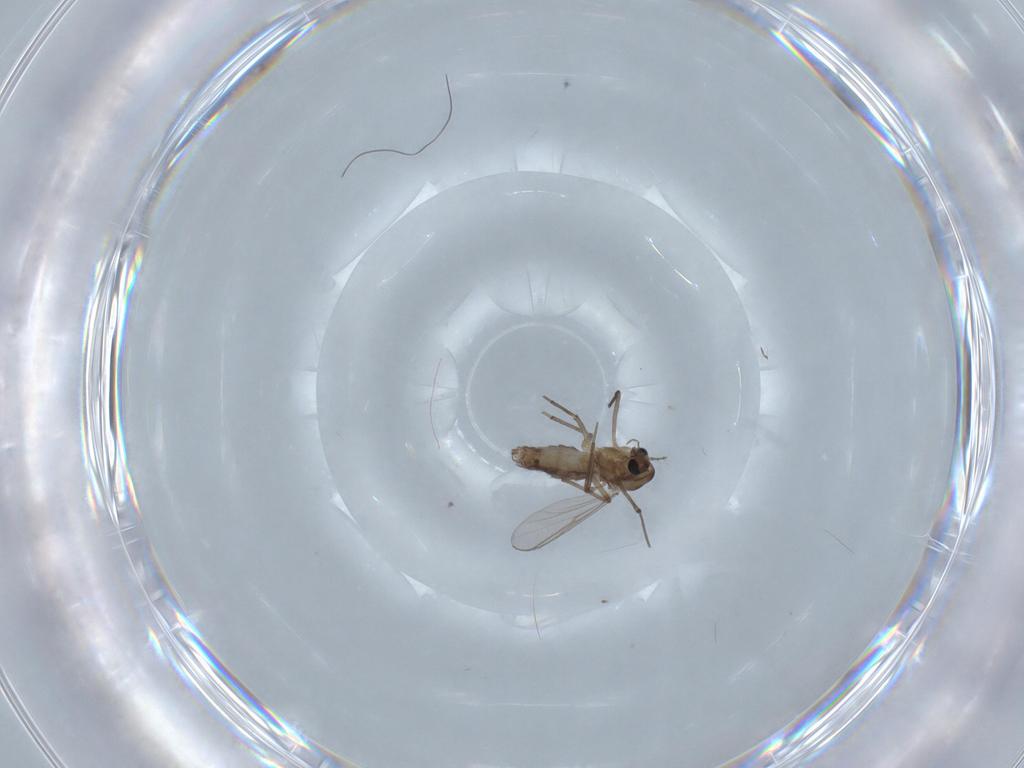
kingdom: Animalia
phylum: Arthropoda
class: Insecta
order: Diptera
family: Chironomidae
